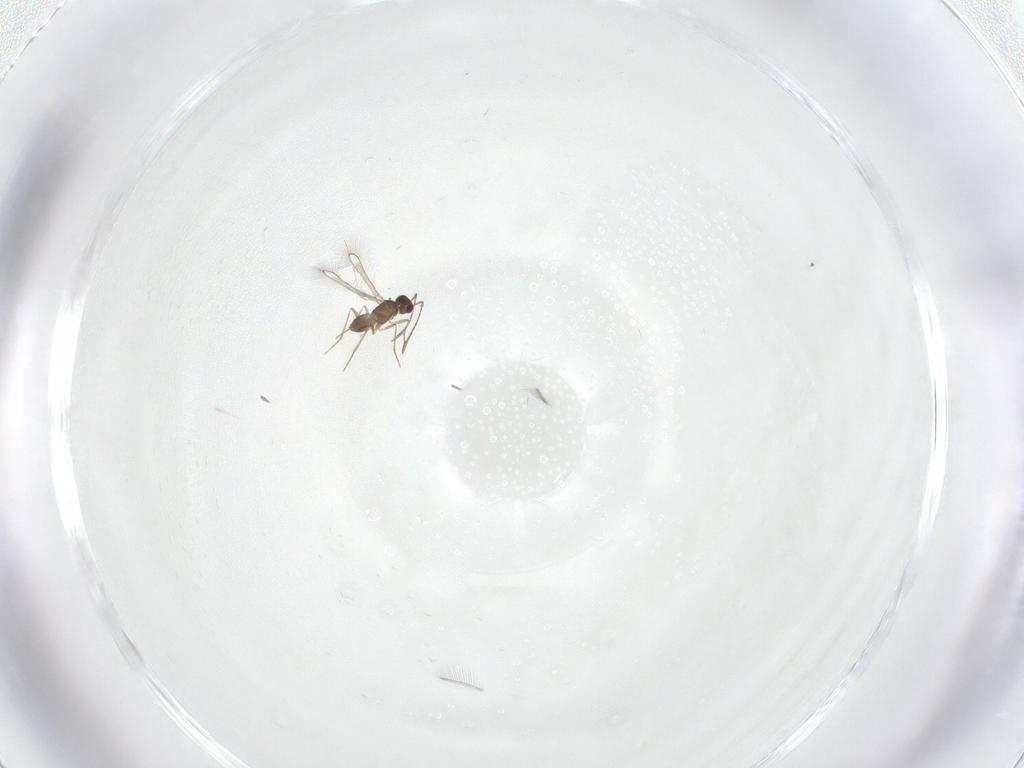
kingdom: Animalia
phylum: Arthropoda
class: Insecta
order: Hymenoptera
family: Mymaridae
